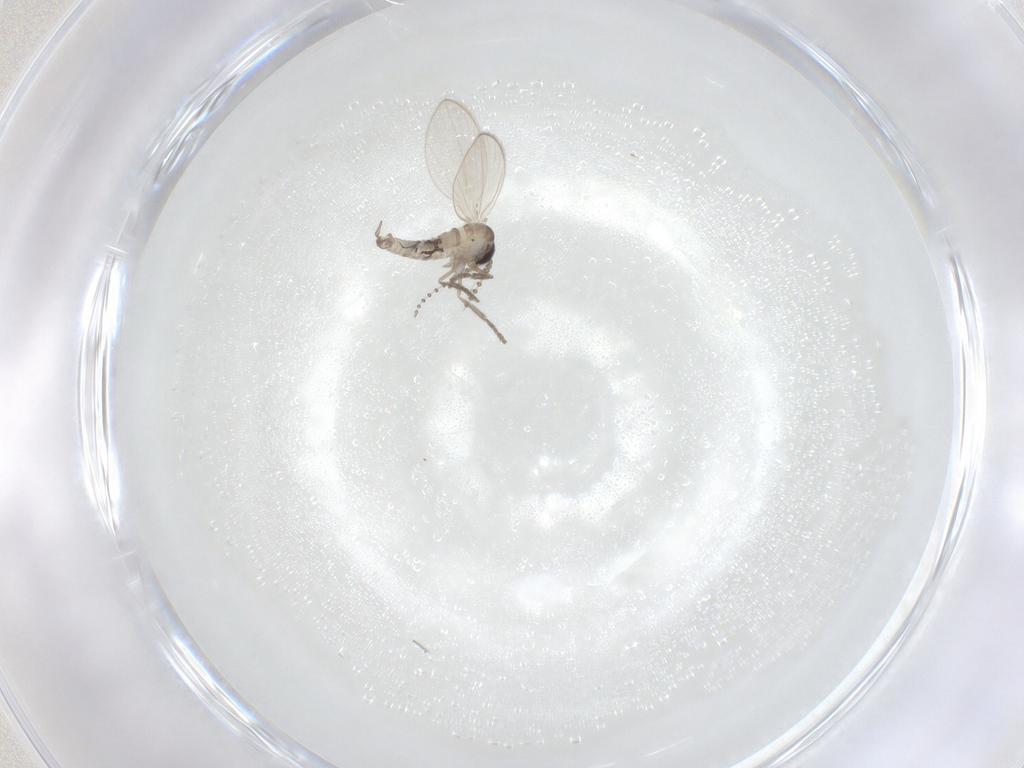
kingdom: Animalia
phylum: Arthropoda
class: Insecta
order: Diptera
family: Psychodidae
